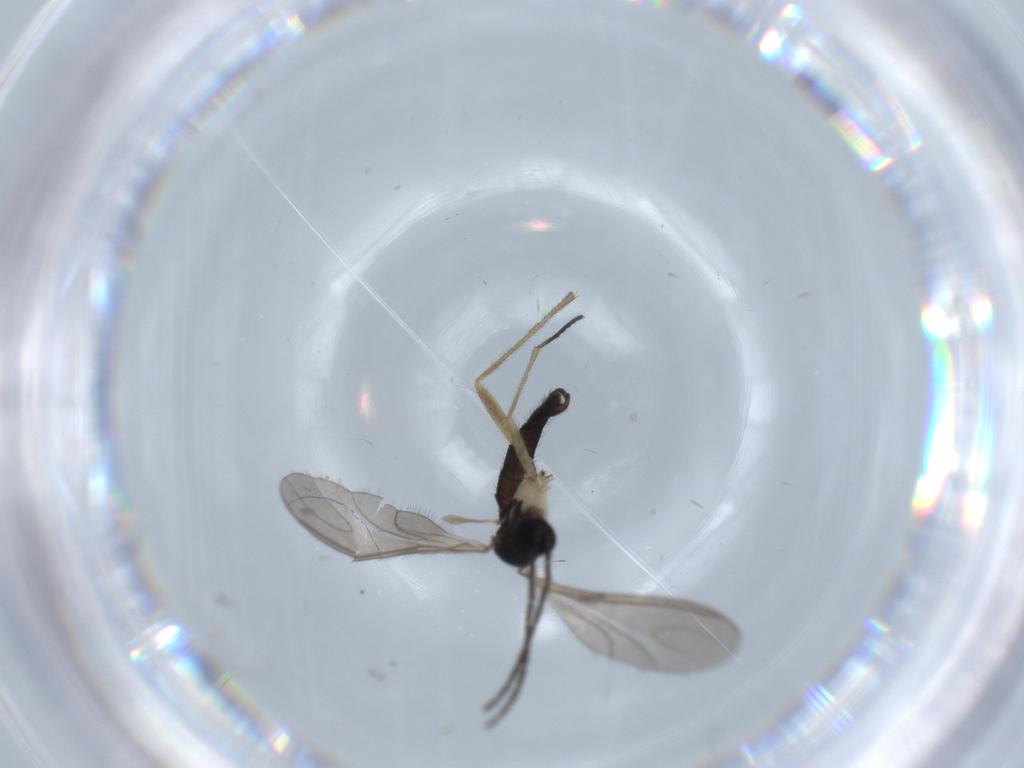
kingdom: Animalia
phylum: Arthropoda
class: Insecta
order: Diptera
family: Sciaridae
